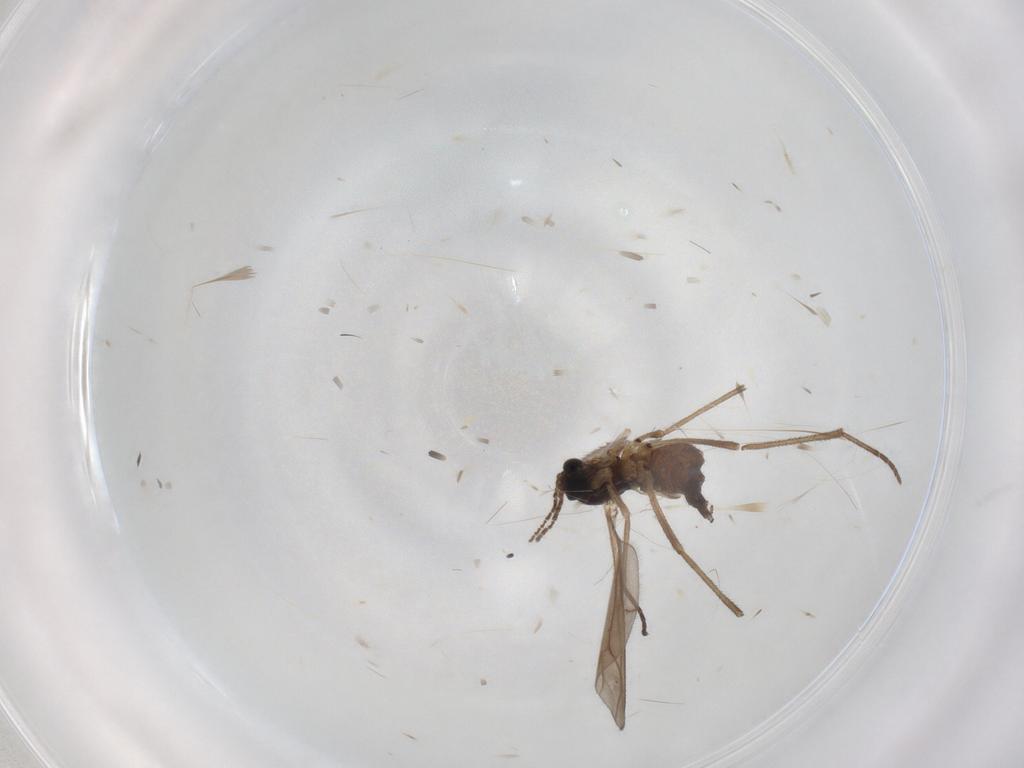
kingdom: Animalia
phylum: Arthropoda
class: Insecta
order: Diptera
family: Sciaridae
